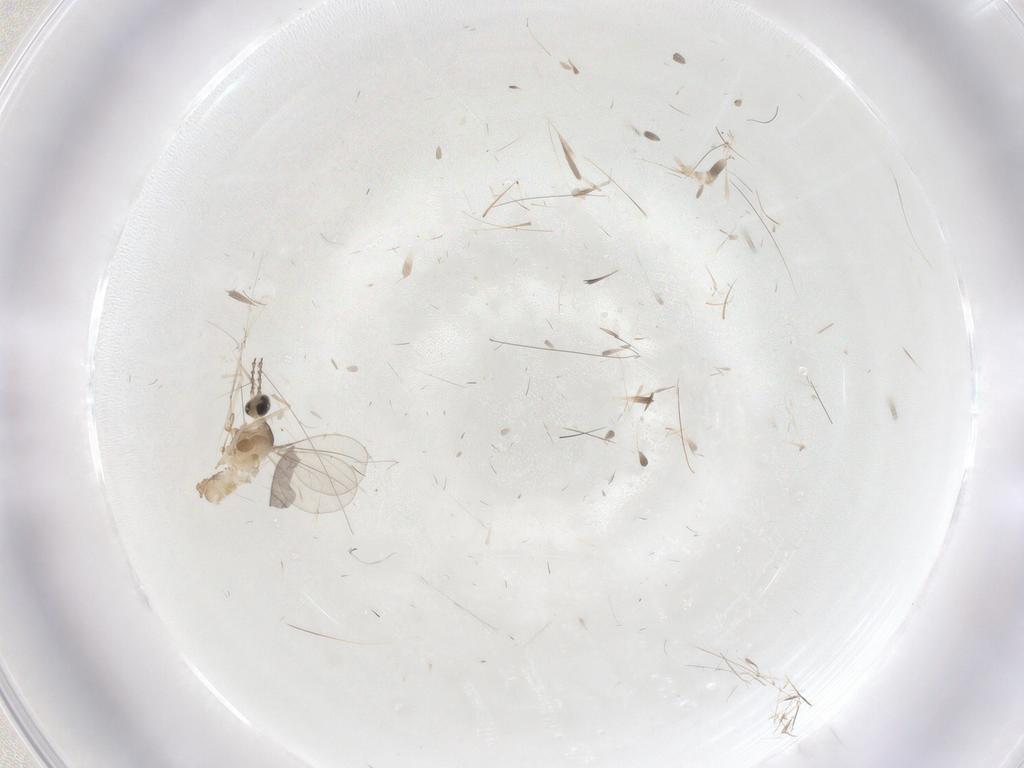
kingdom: Animalia
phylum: Arthropoda
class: Insecta
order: Diptera
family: Cecidomyiidae
